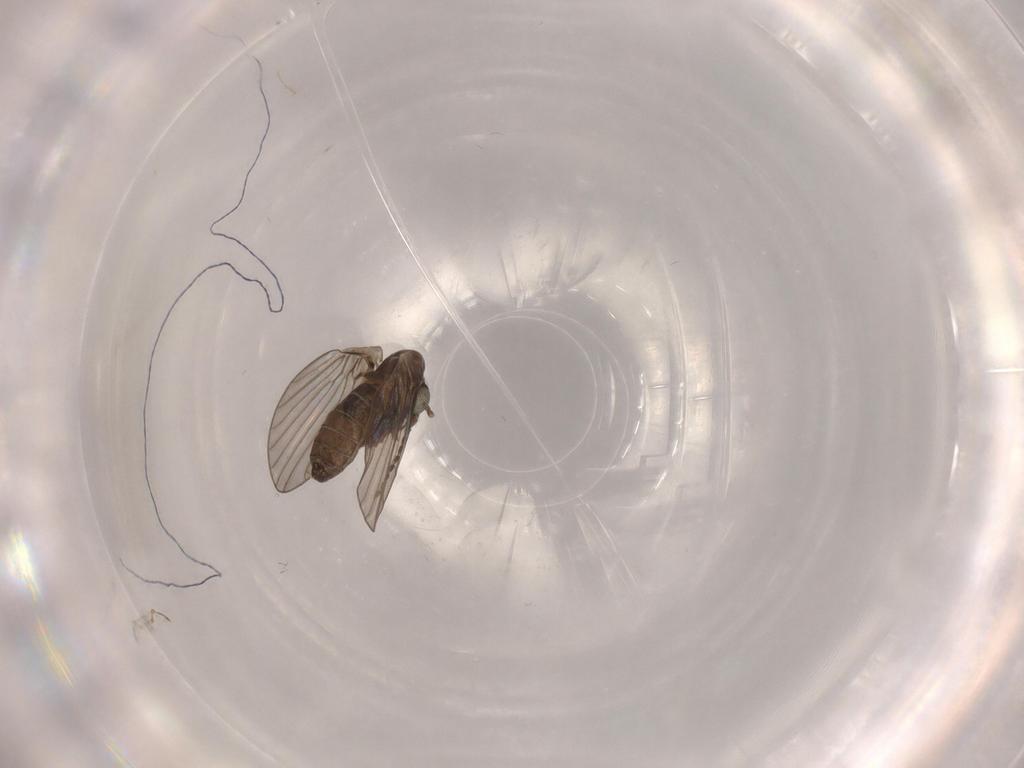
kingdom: Animalia
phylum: Arthropoda
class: Insecta
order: Diptera
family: Psychodidae
